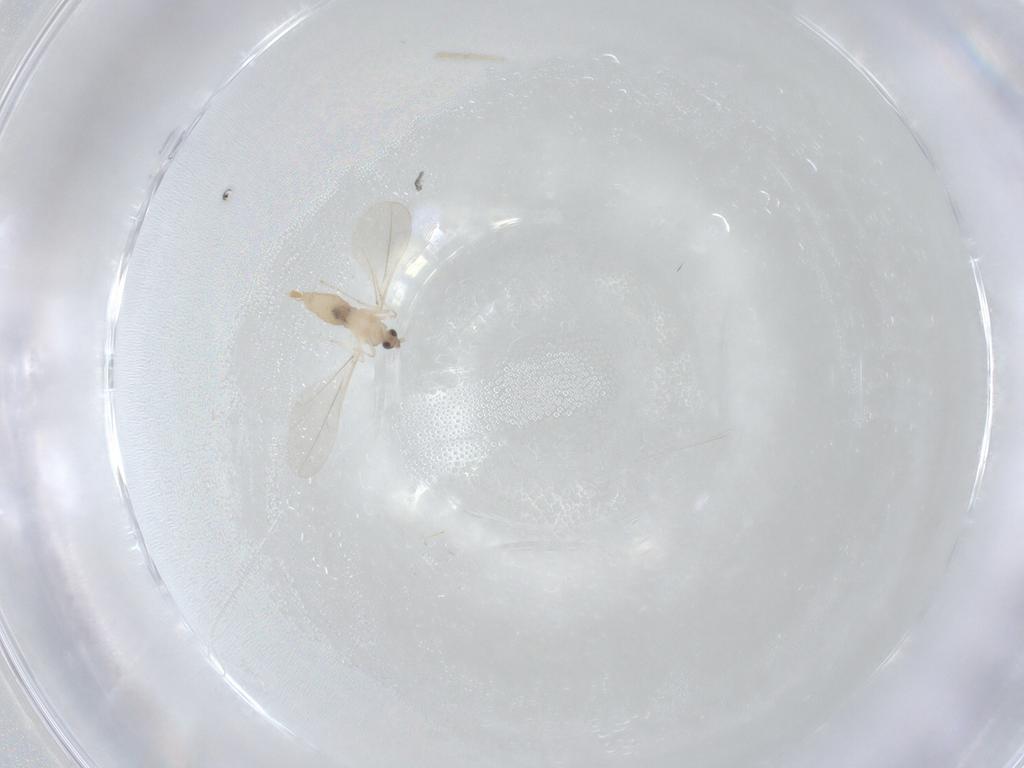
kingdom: Animalia
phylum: Arthropoda
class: Insecta
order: Diptera
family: Cecidomyiidae
